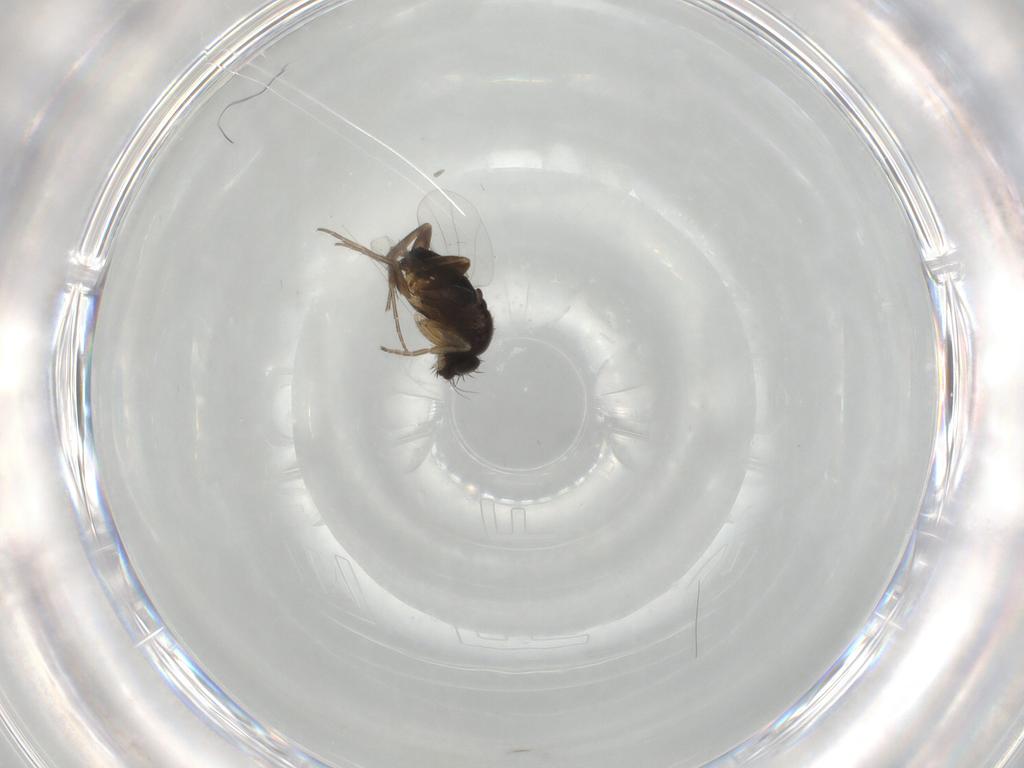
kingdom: Animalia
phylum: Arthropoda
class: Insecta
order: Diptera
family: Phoridae
